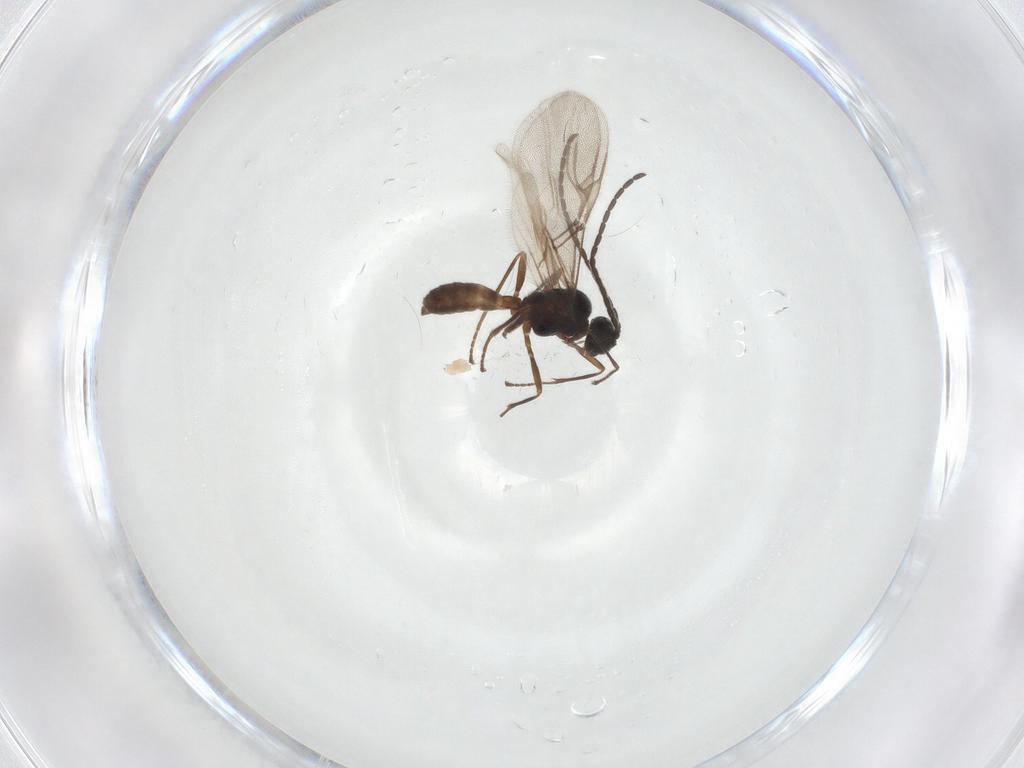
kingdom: Animalia
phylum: Arthropoda
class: Insecta
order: Hymenoptera
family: Braconidae
